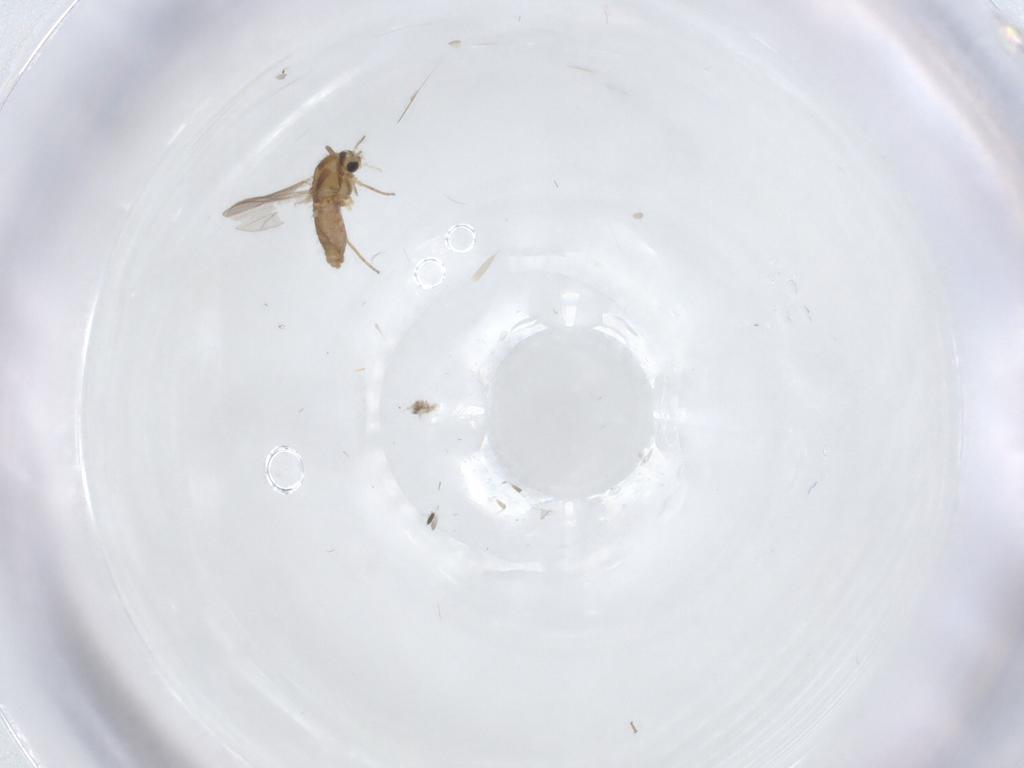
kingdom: Animalia
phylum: Arthropoda
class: Insecta
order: Diptera
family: Chironomidae
